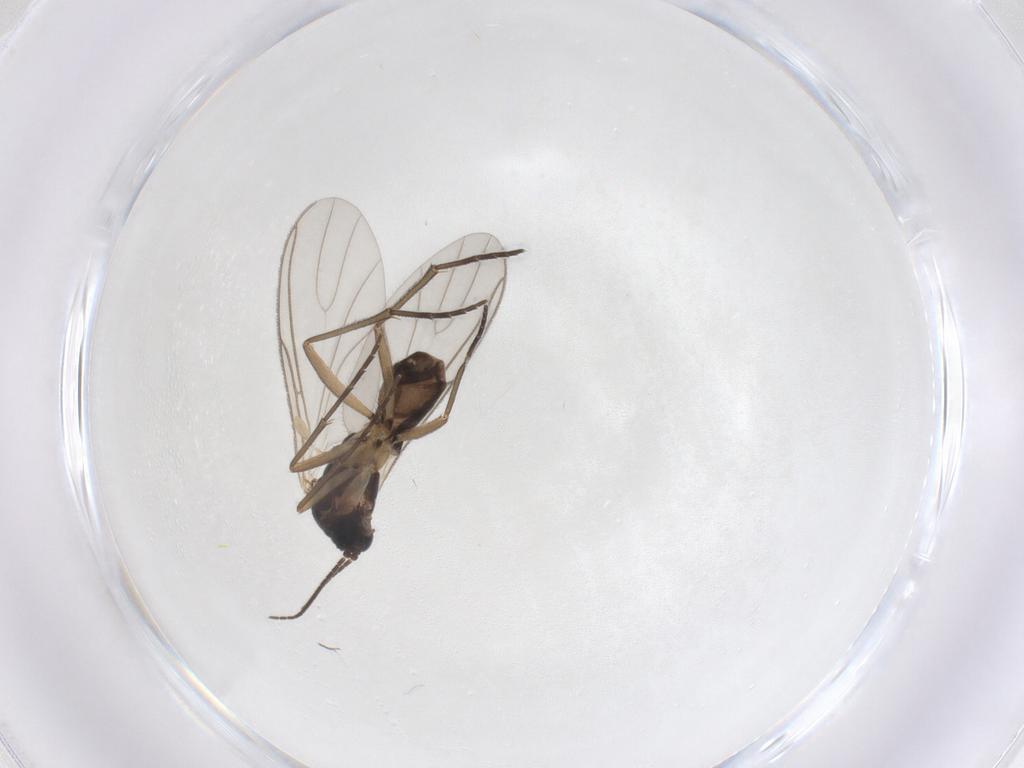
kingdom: Animalia
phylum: Arthropoda
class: Insecta
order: Diptera
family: Sciaridae
